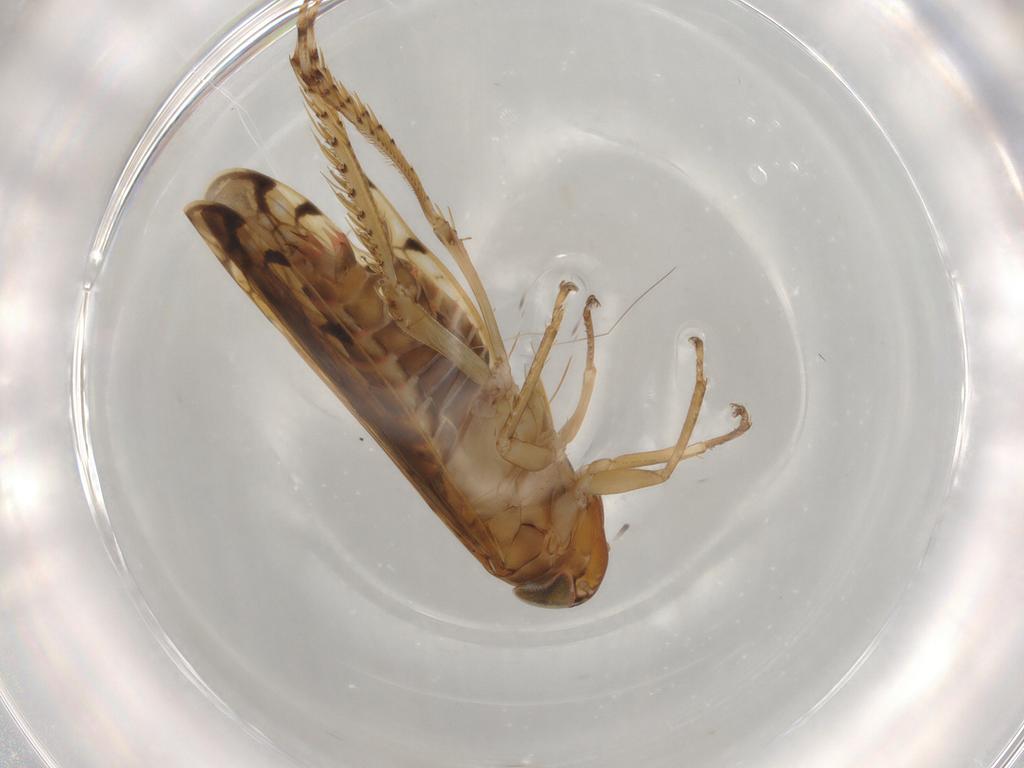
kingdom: Animalia
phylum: Arthropoda
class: Insecta
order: Hemiptera
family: Cicadellidae
